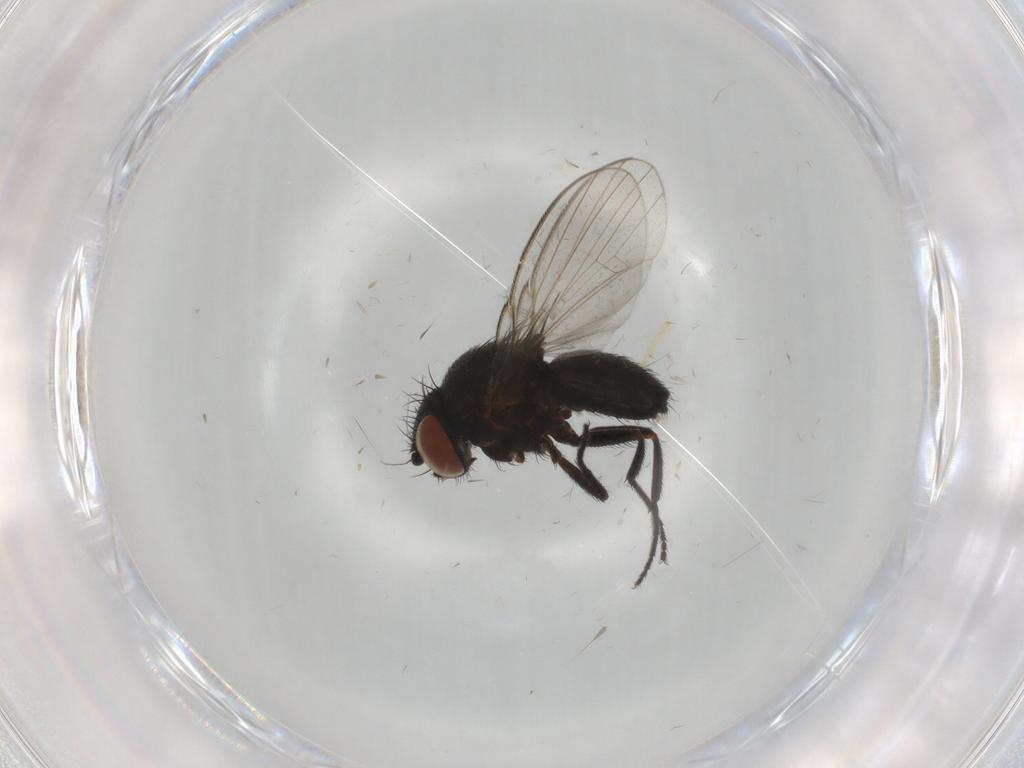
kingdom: Animalia
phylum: Arthropoda
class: Insecta
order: Diptera
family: Milichiidae
